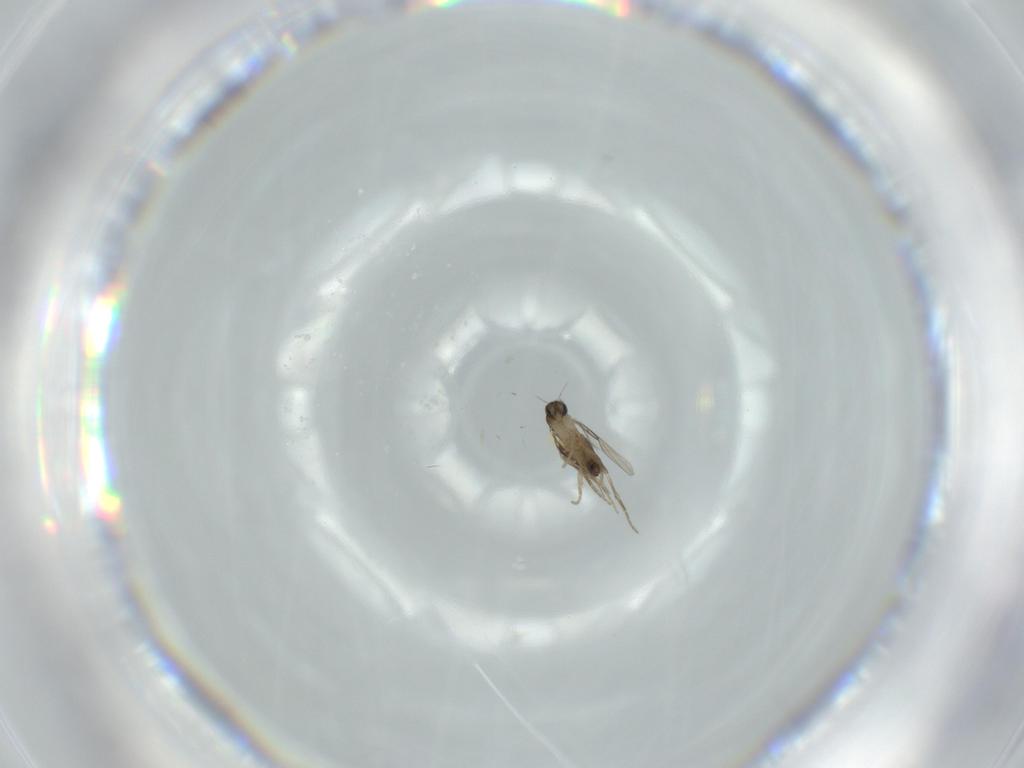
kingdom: Animalia
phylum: Arthropoda
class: Insecta
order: Diptera
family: Phoridae
